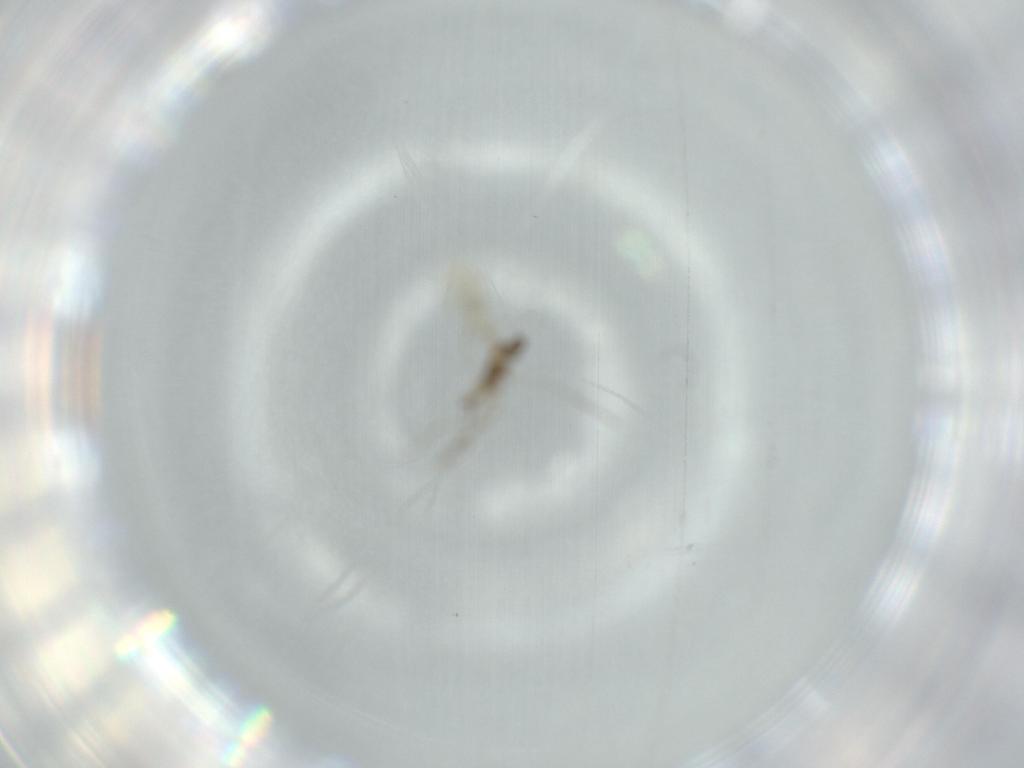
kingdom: Animalia
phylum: Arthropoda
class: Insecta
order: Diptera
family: Cecidomyiidae
